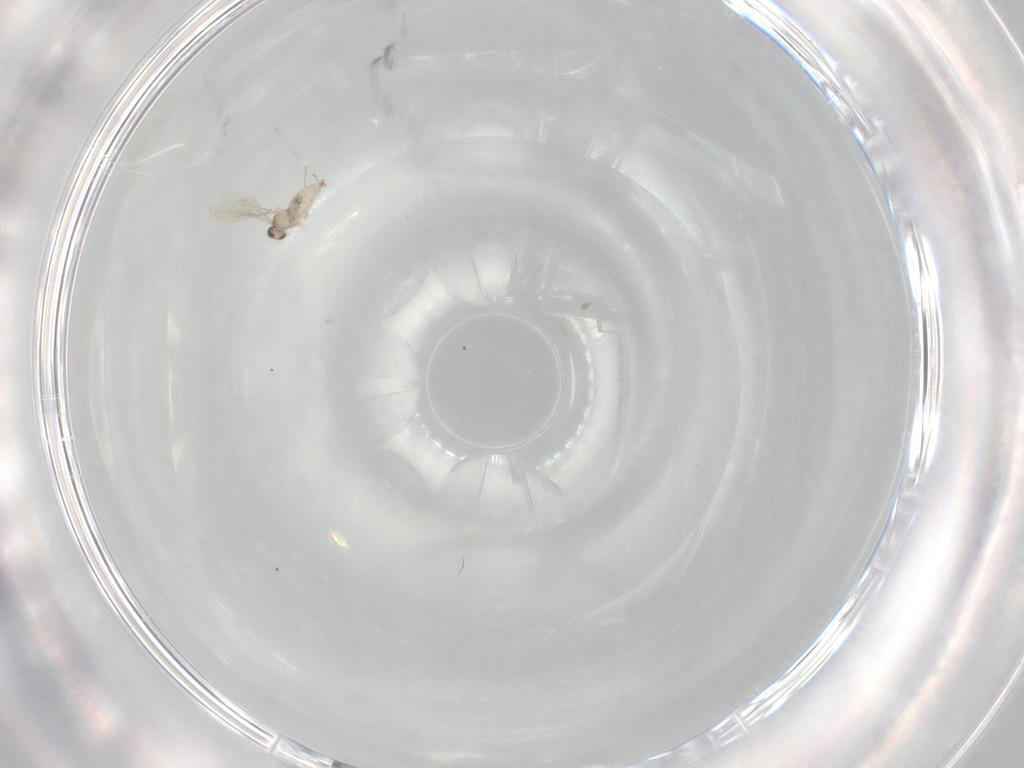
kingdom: Animalia
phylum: Arthropoda
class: Insecta
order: Diptera
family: Cecidomyiidae
